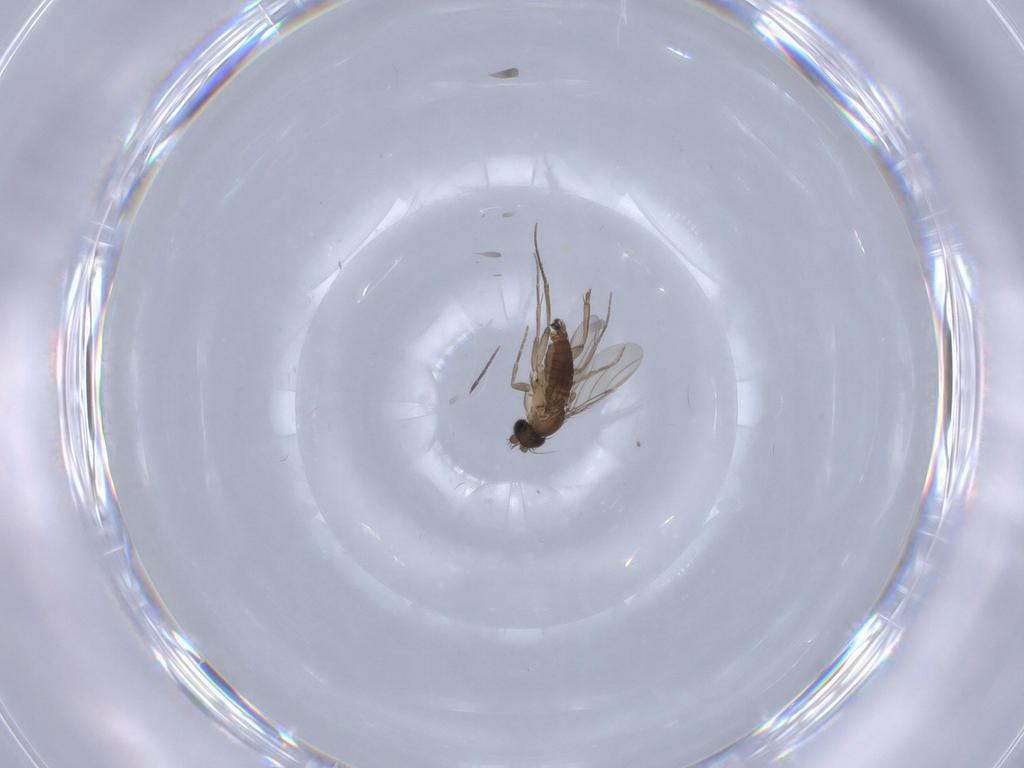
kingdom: Animalia
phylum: Arthropoda
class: Insecta
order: Diptera
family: Phoridae
